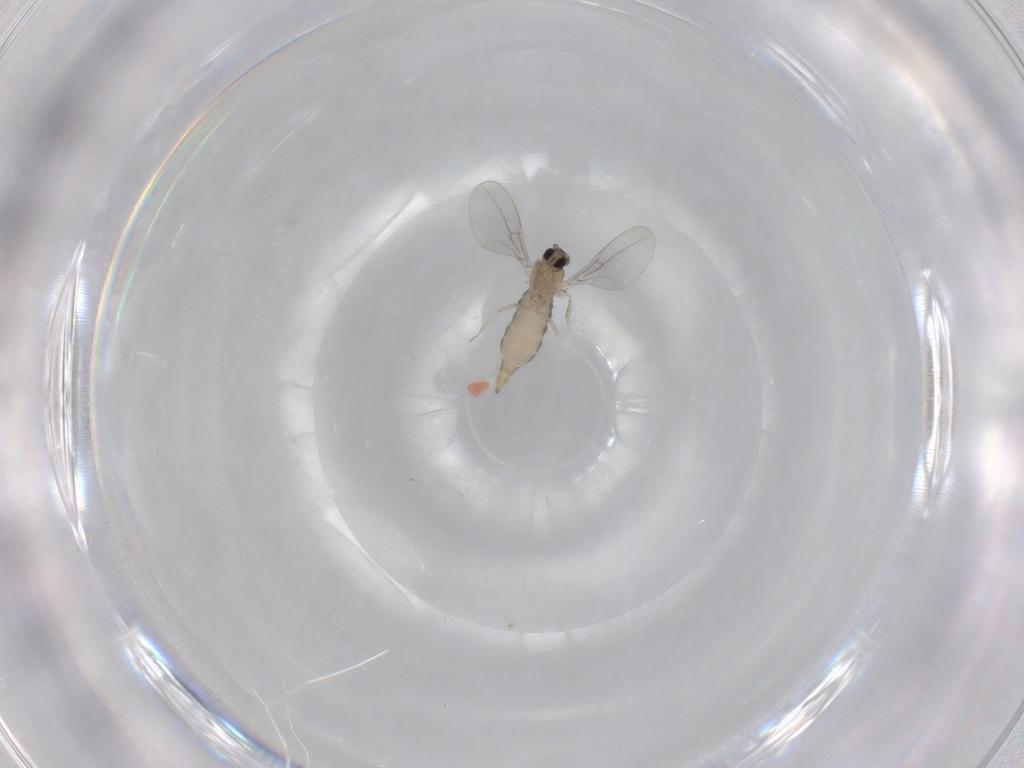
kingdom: Animalia
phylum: Arthropoda
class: Insecta
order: Diptera
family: Cecidomyiidae
